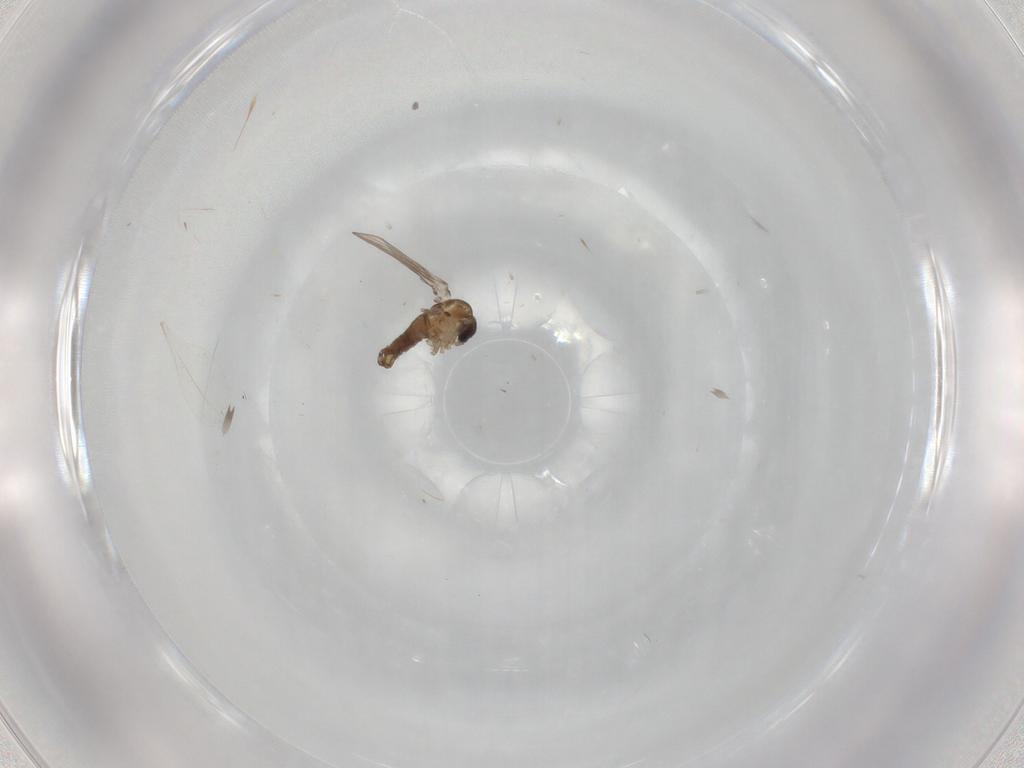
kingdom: Animalia
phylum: Arthropoda
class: Insecta
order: Diptera
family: Psychodidae
